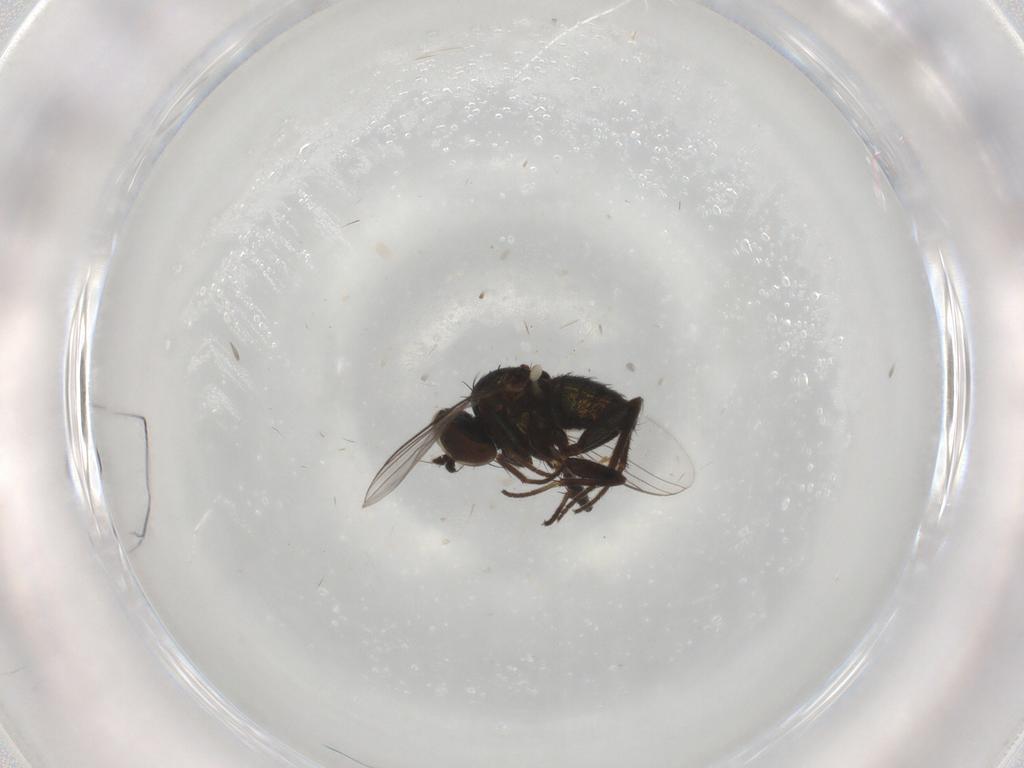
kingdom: Animalia
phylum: Arthropoda
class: Insecta
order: Diptera
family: Dolichopodidae
